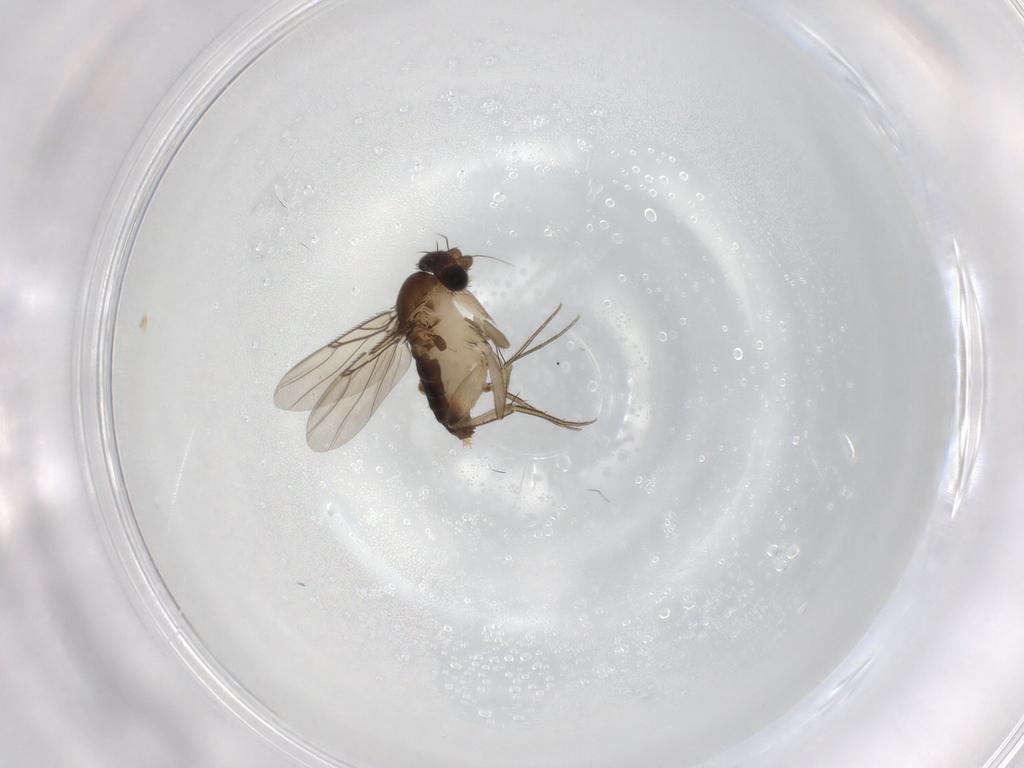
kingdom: Animalia
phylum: Arthropoda
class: Insecta
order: Diptera
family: Phoridae
